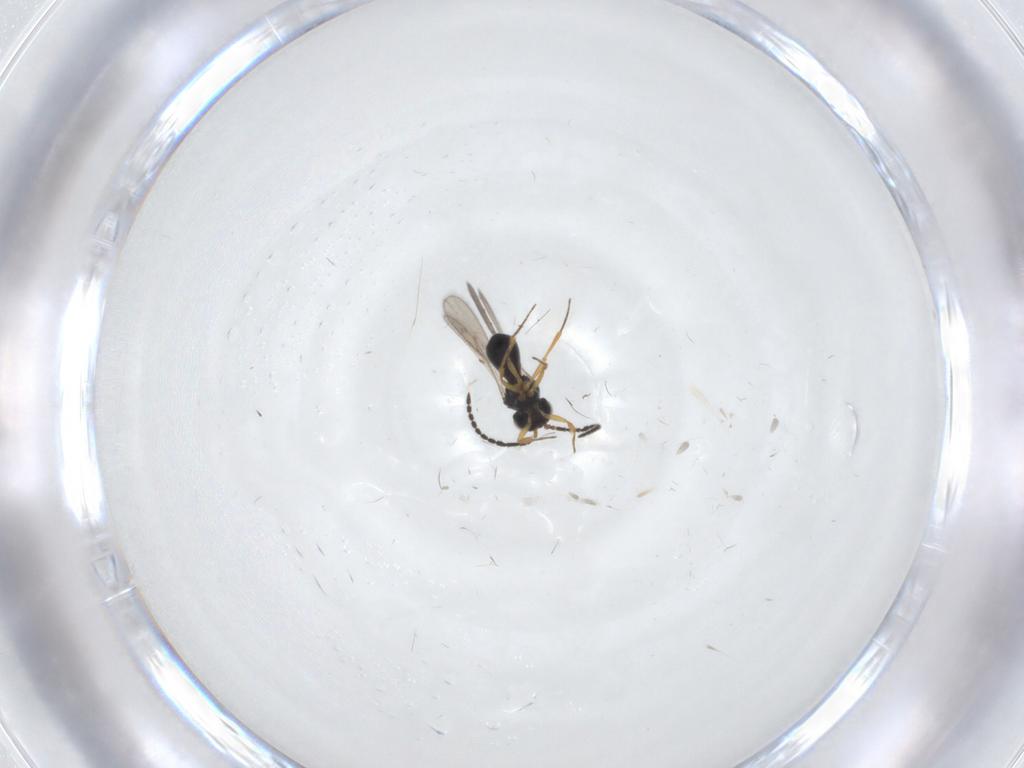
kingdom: Animalia
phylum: Arthropoda
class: Insecta
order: Hymenoptera
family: Scelionidae
